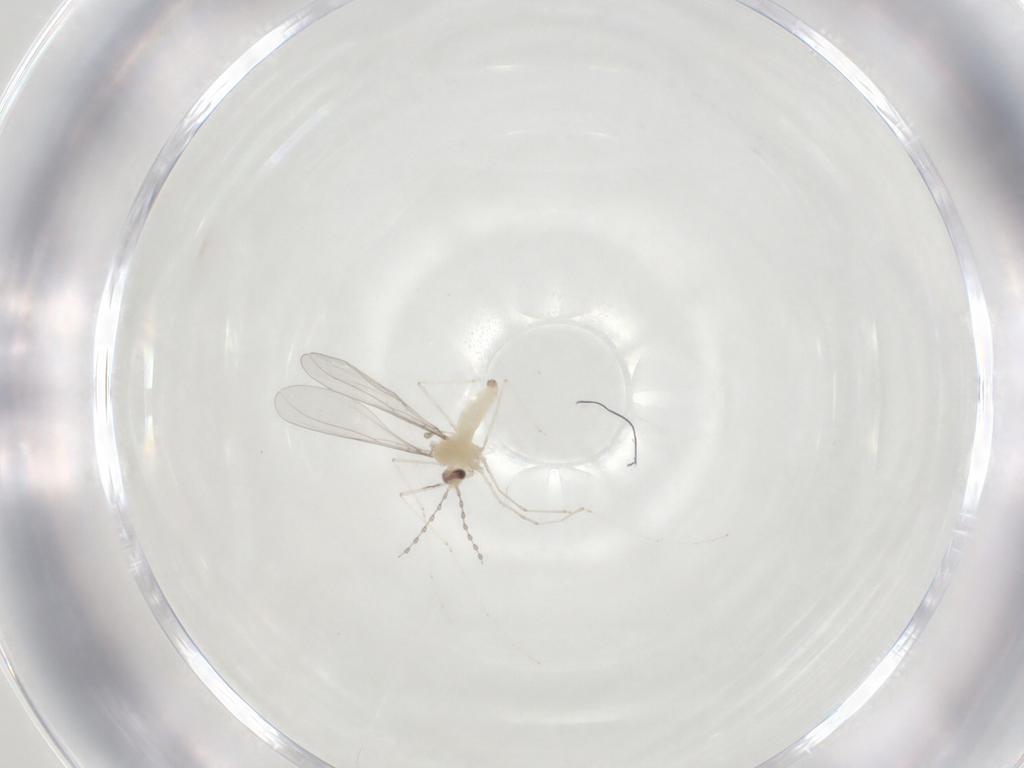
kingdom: Animalia
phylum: Arthropoda
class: Insecta
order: Diptera
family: Cecidomyiidae
